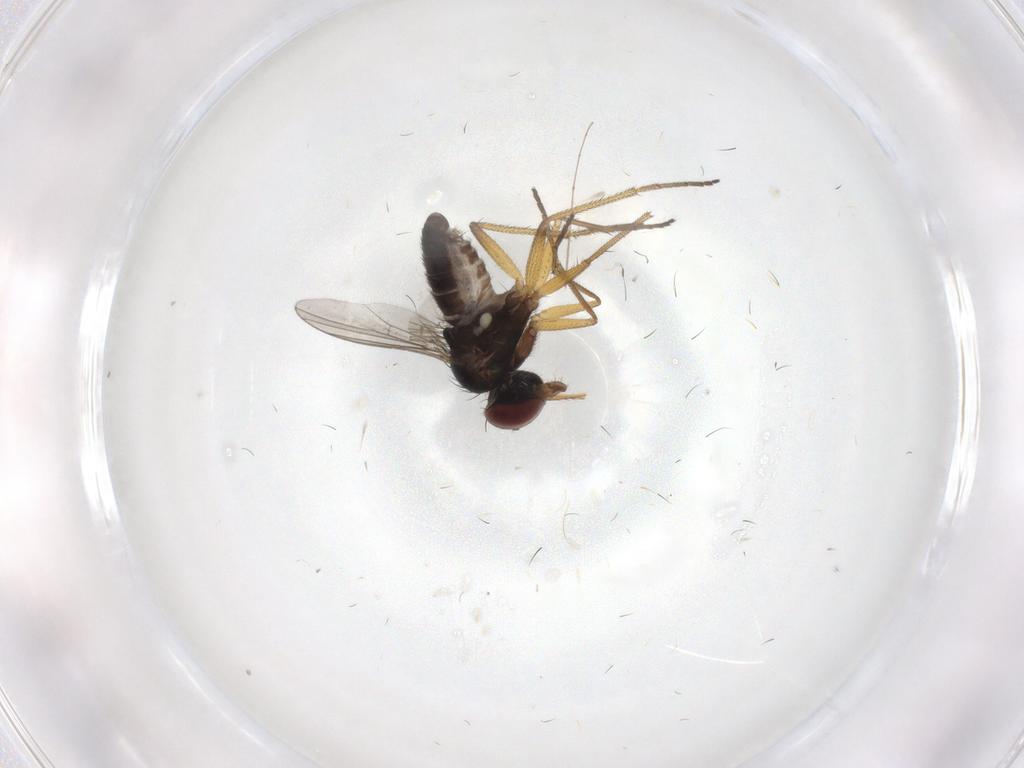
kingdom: Animalia
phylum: Arthropoda
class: Insecta
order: Diptera
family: Dolichopodidae
